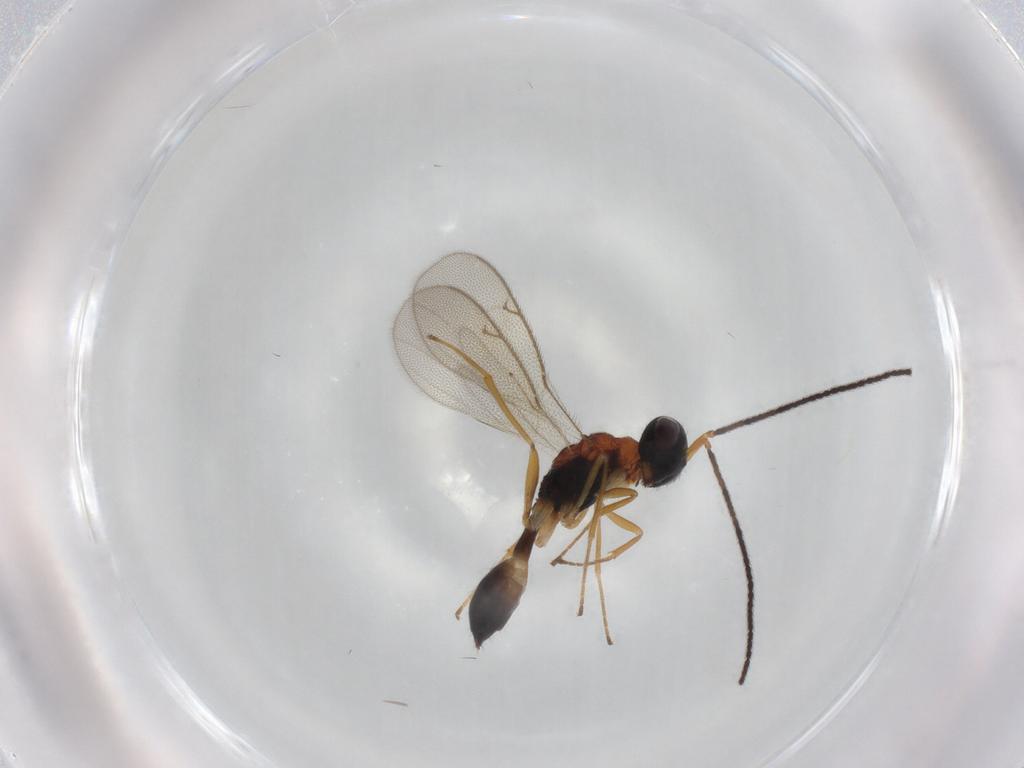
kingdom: Animalia
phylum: Arthropoda
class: Insecta
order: Hymenoptera
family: Pteromalidae
